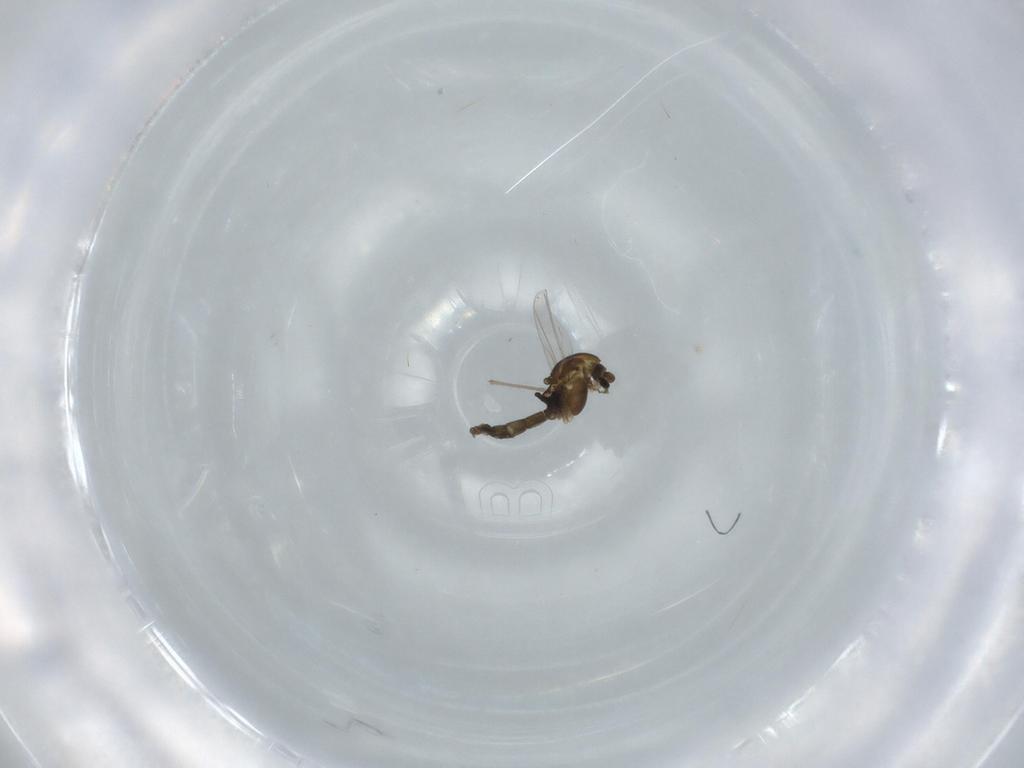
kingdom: Animalia
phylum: Arthropoda
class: Insecta
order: Diptera
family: Chironomidae
